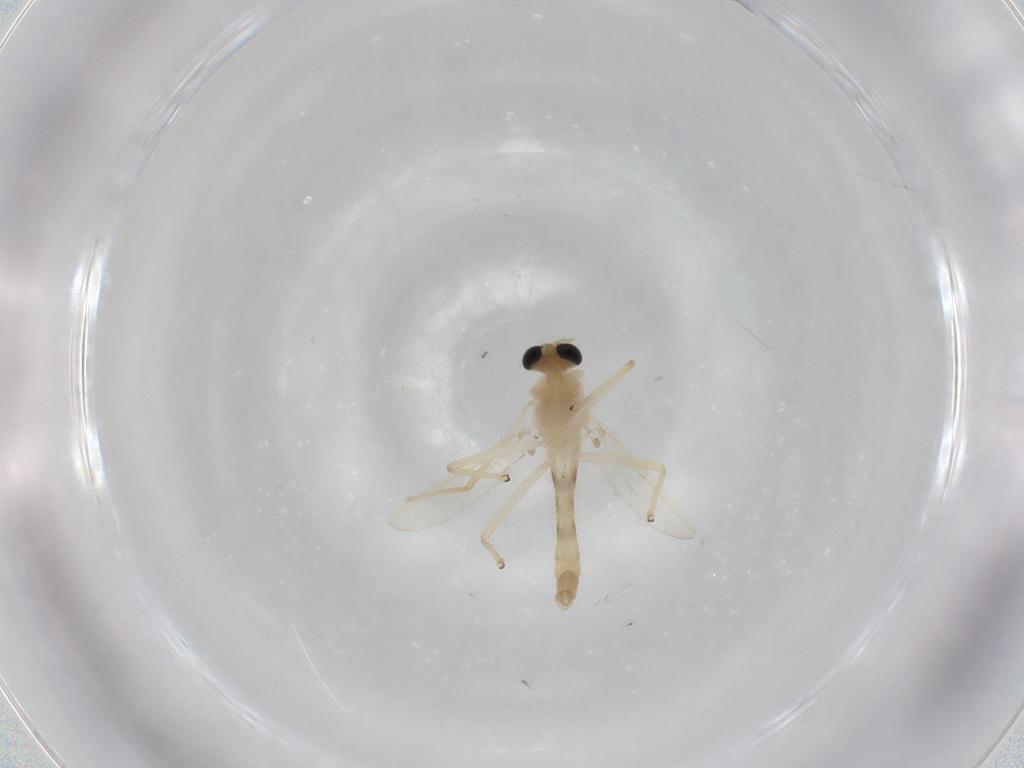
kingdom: Animalia
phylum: Arthropoda
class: Insecta
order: Diptera
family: Chironomidae
